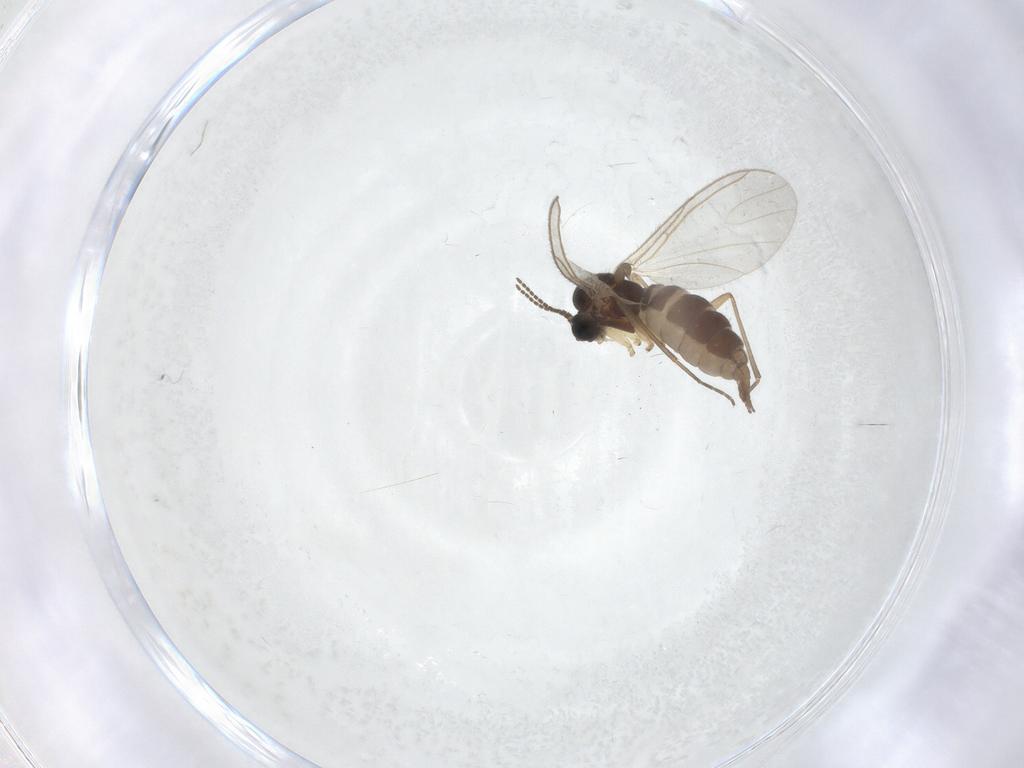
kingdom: Animalia
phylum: Arthropoda
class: Insecta
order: Diptera
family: Sciaridae
